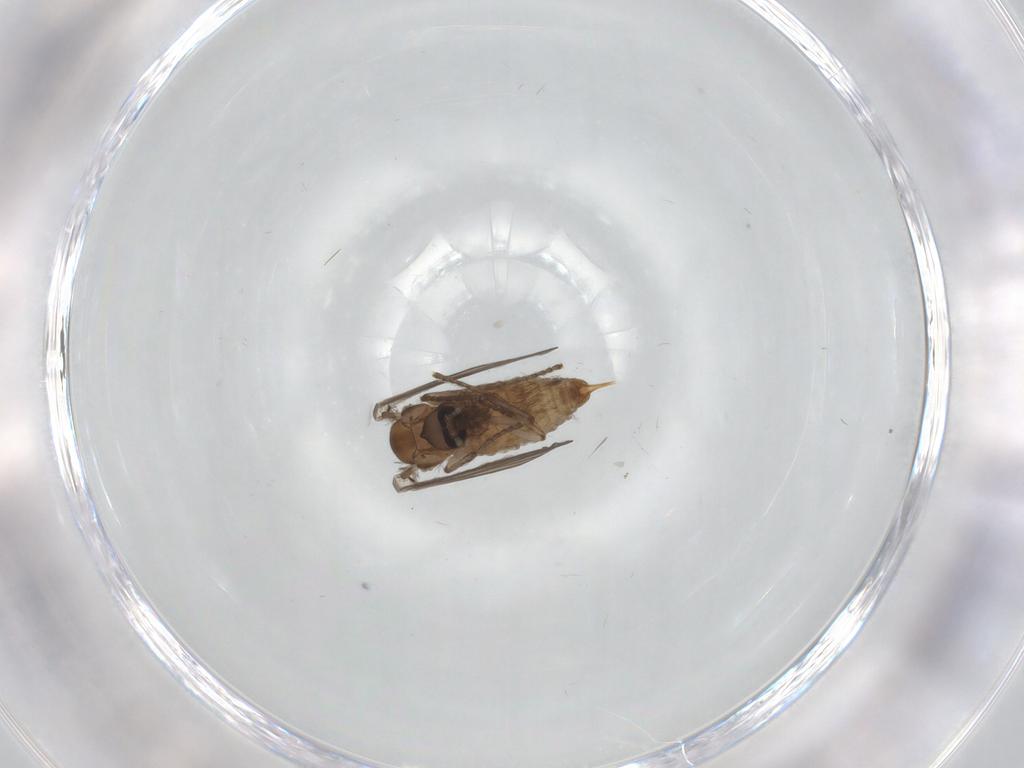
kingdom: Animalia
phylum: Arthropoda
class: Insecta
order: Diptera
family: Psychodidae
